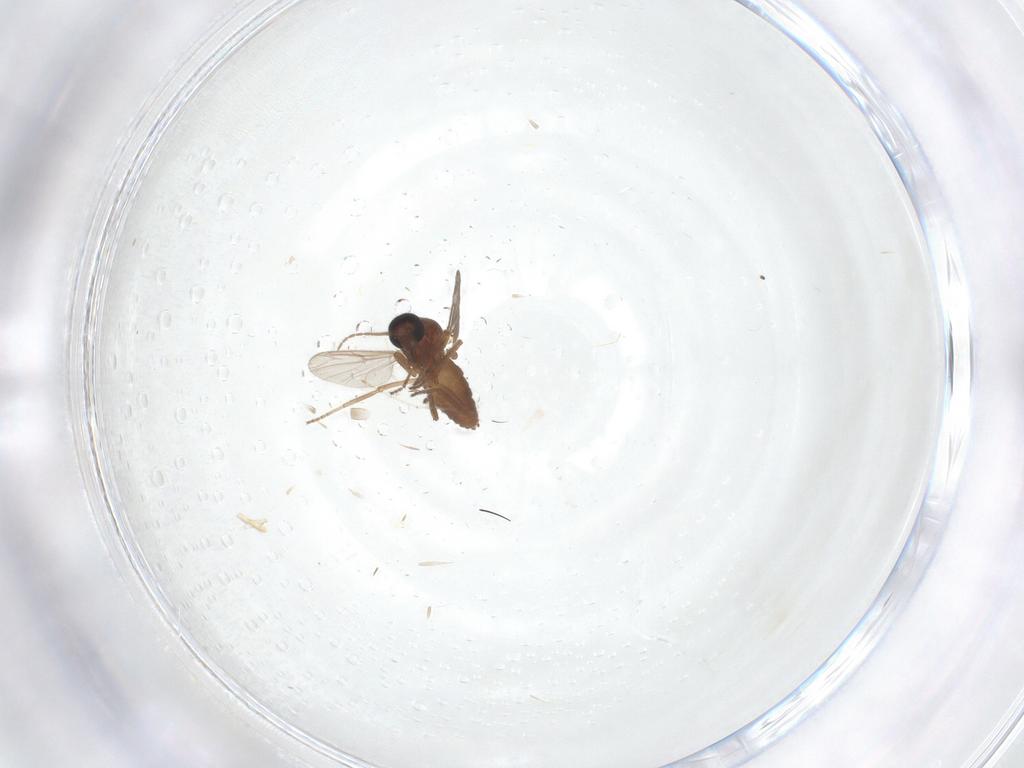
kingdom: Animalia
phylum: Arthropoda
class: Insecta
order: Diptera
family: Ceratopogonidae
